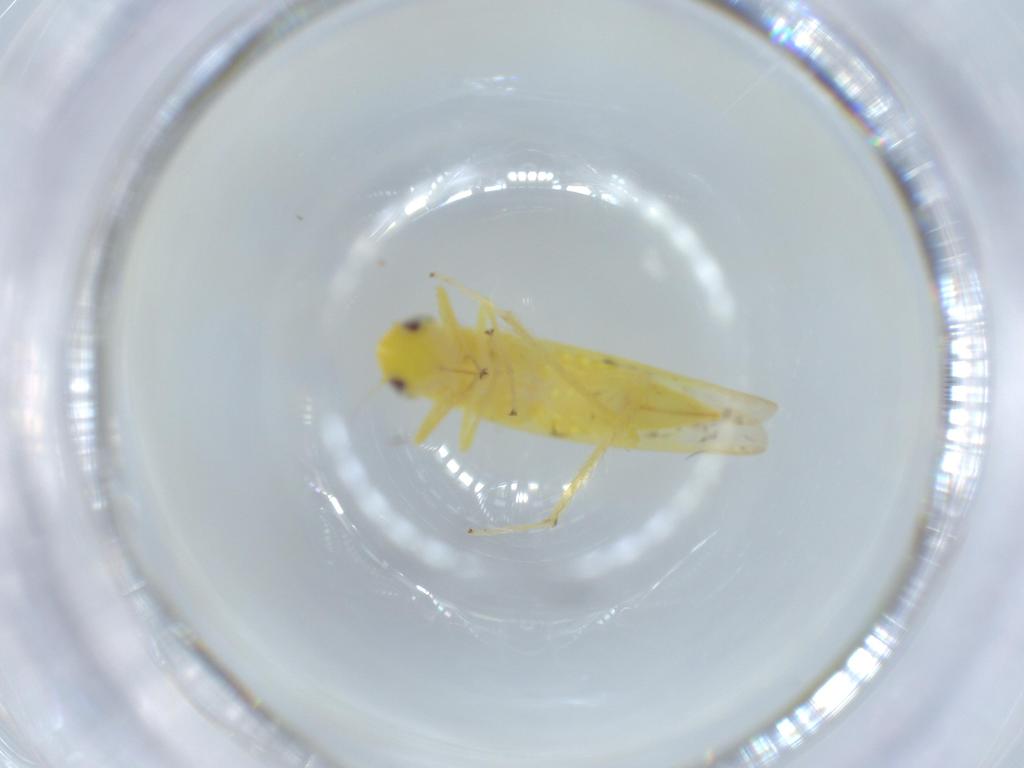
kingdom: Animalia
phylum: Arthropoda
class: Insecta
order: Hemiptera
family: Cicadellidae
